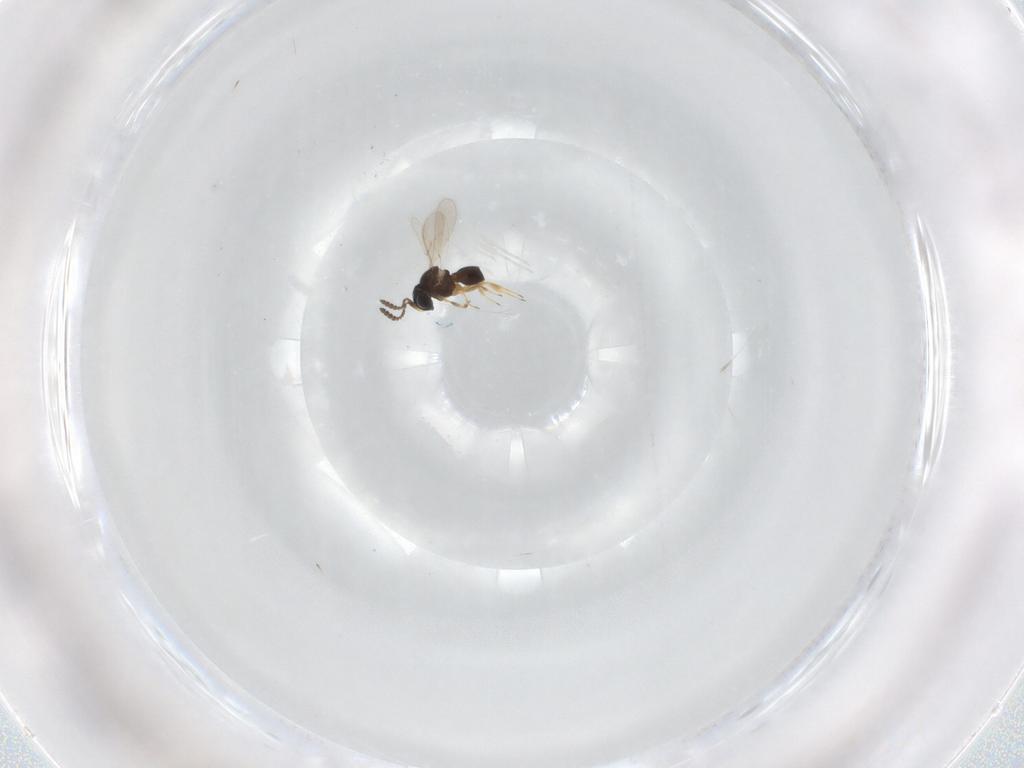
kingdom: Animalia
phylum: Arthropoda
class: Insecta
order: Hymenoptera
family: Scelionidae
